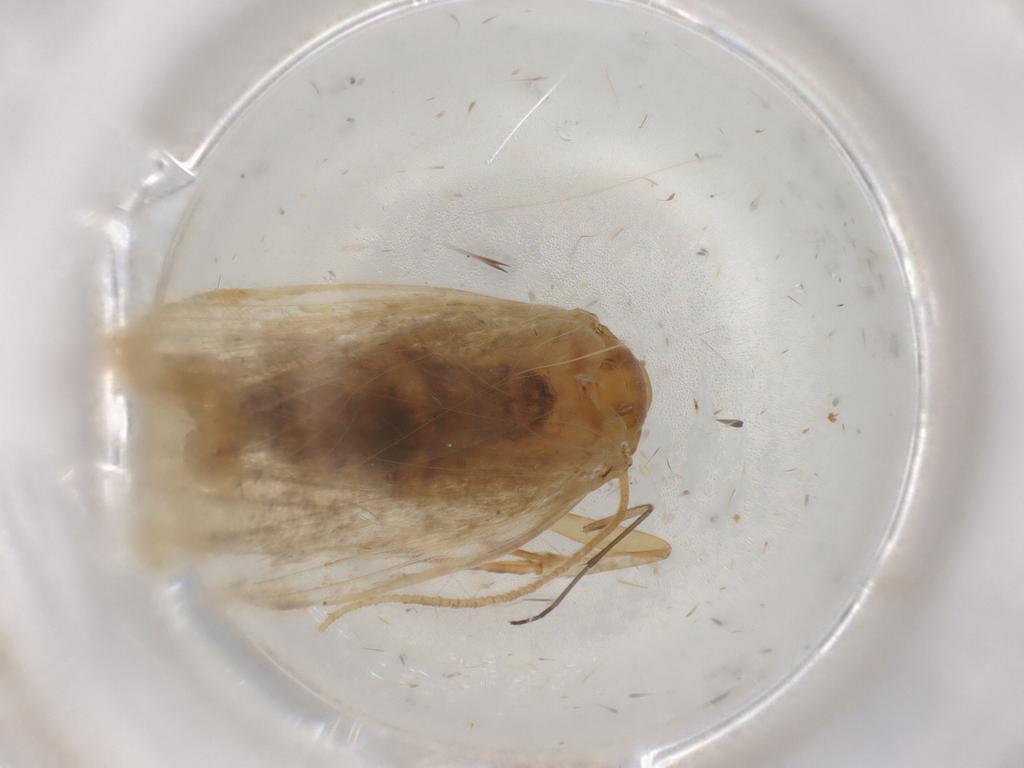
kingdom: Animalia
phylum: Arthropoda
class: Insecta
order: Lepidoptera
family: Depressariidae
